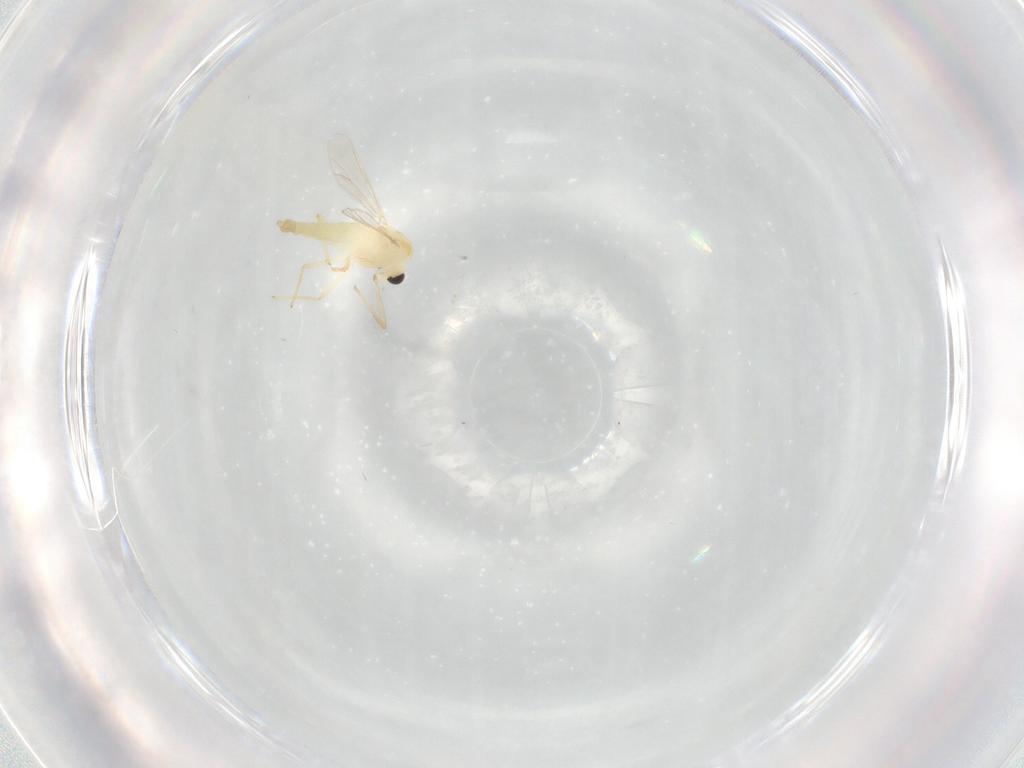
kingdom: Animalia
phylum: Arthropoda
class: Insecta
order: Diptera
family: Chironomidae
